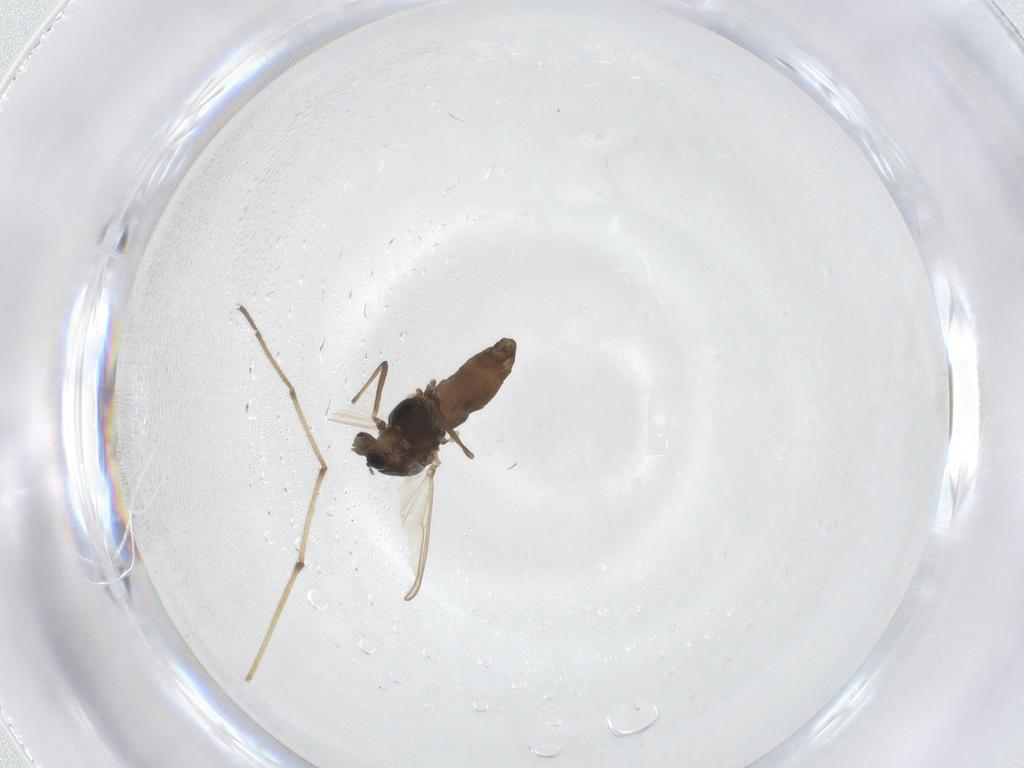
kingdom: Animalia
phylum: Arthropoda
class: Insecta
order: Diptera
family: Chironomidae
